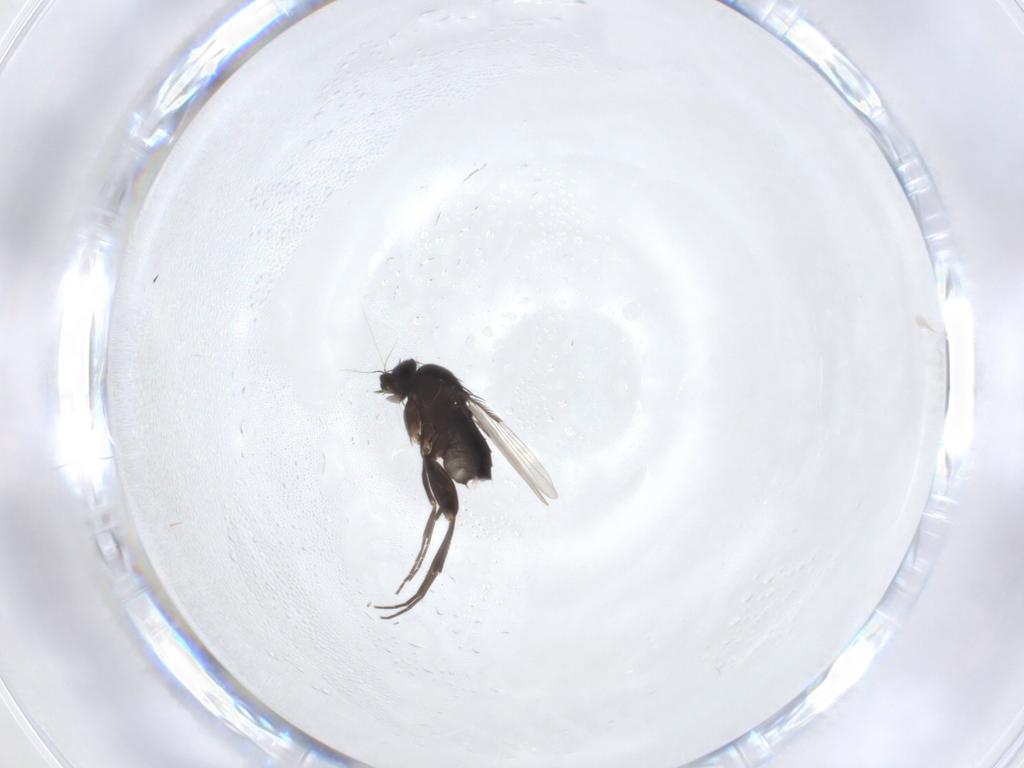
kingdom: Animalia
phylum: Arthropoda
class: Insecta
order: Diptera
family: Phoridae
